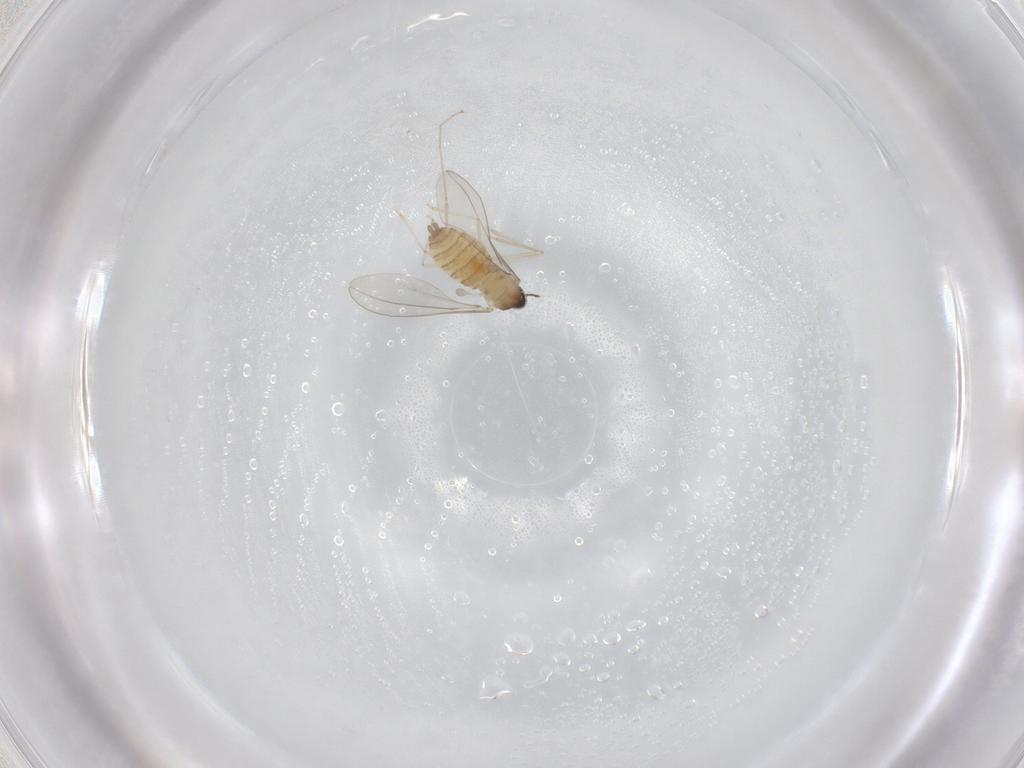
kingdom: Animalia
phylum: Arthropoda
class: Insecta
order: Diptera
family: Cecidomyiidae
